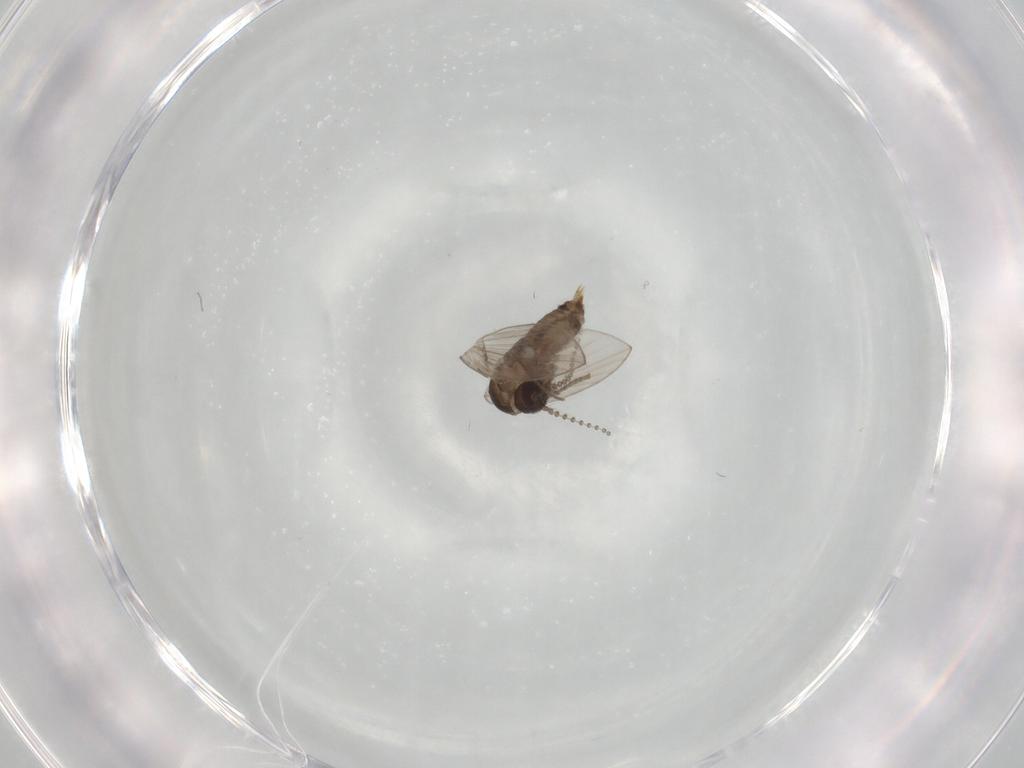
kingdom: Animalia
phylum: Arthropoda
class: Insecta
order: Diptera
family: Psychodidae
